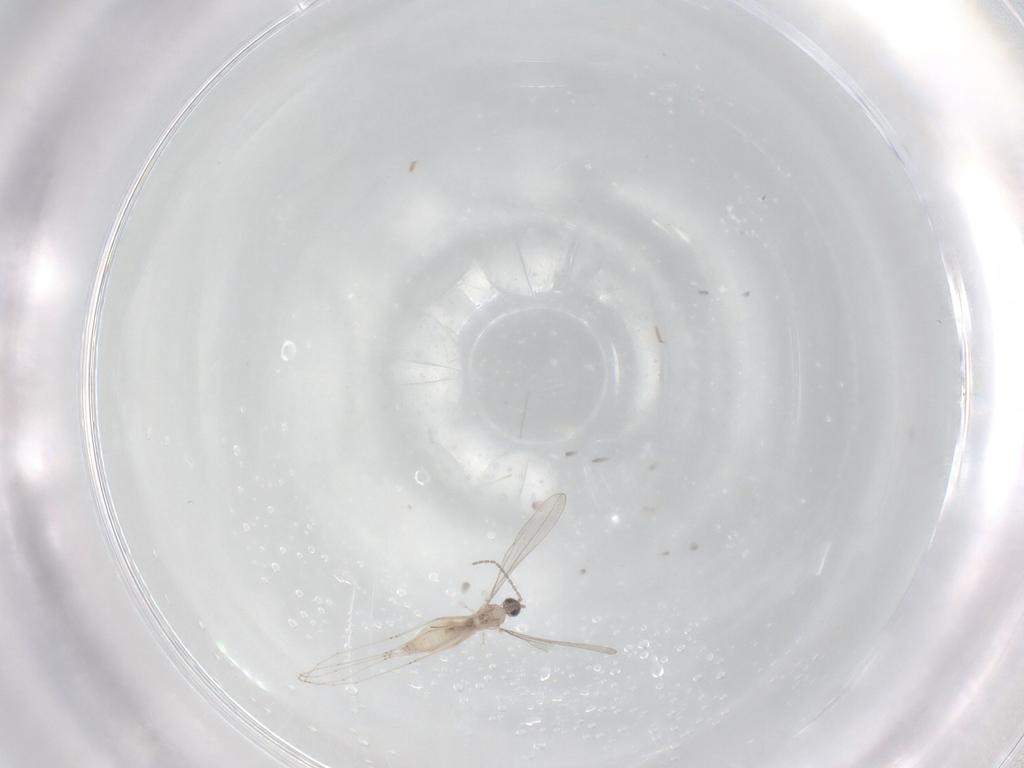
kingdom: Animalia
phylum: Arthropoda
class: Insecta
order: Diptera
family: Cecidomyiidae
